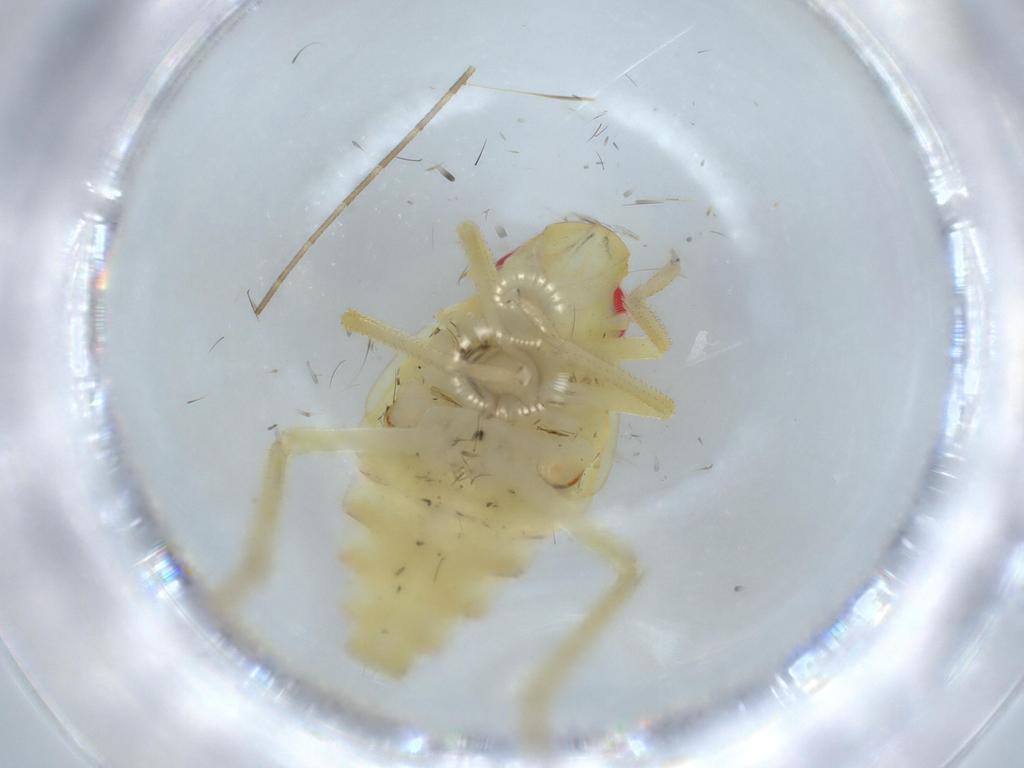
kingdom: Animalia
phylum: Arthropoda
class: Insecta
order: Hemiptera
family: Tropiduchidae
